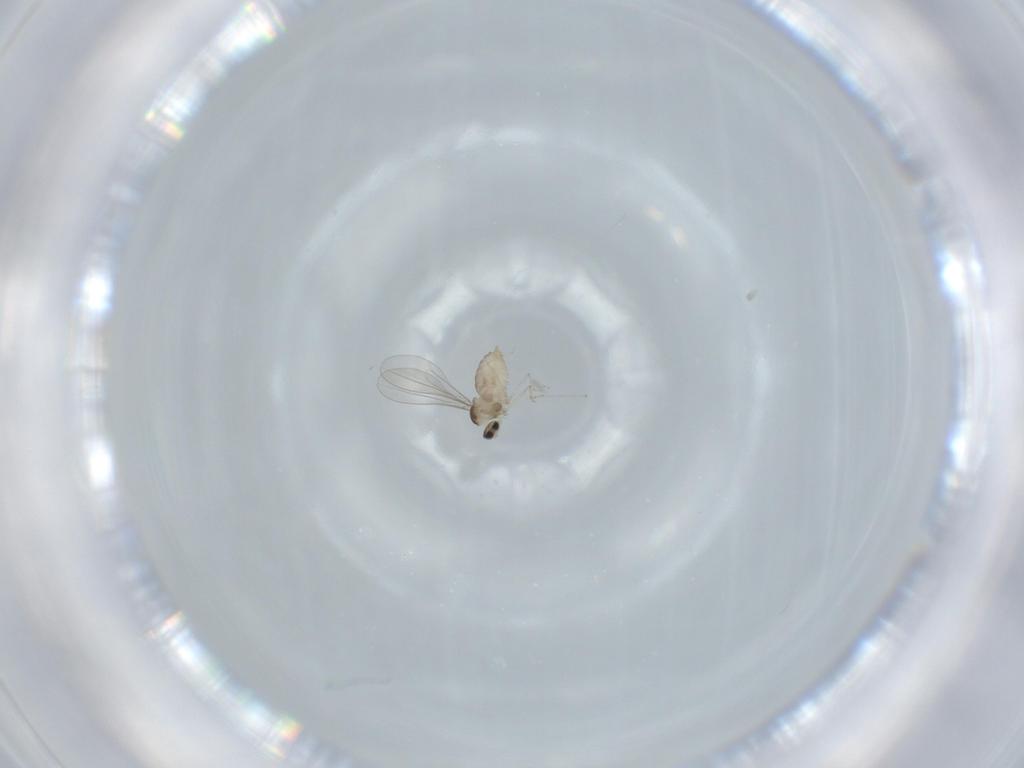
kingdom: Animalia
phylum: Arthropoda
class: Insecta
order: Diptera
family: Cecidomyiidae
